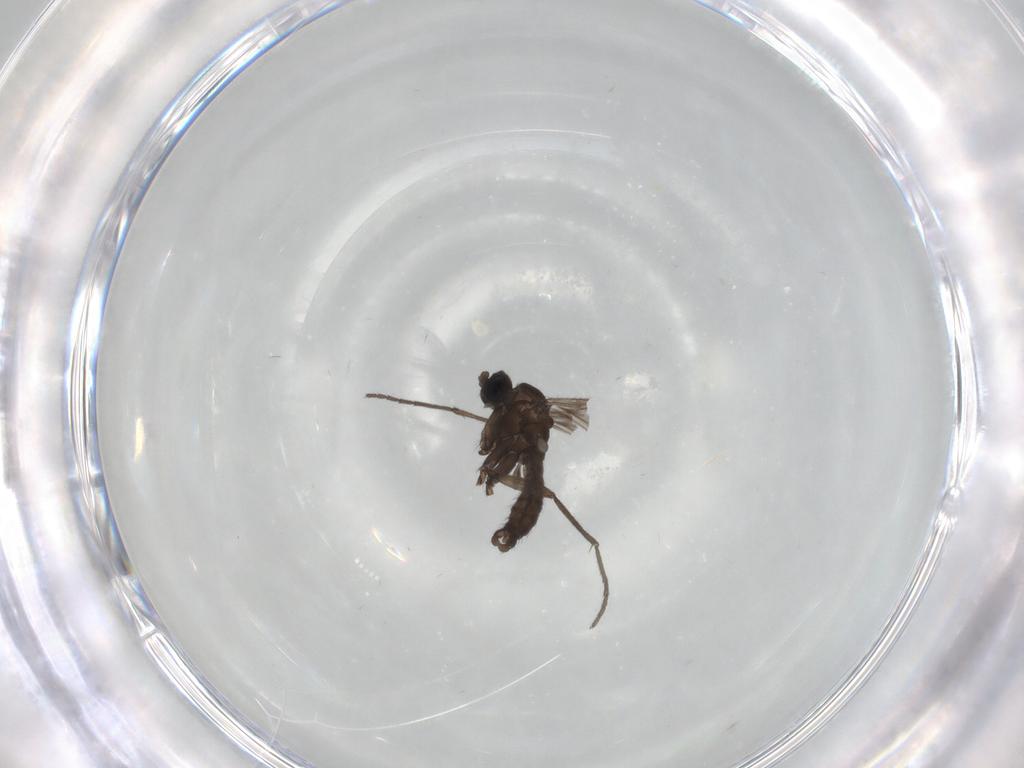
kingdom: Animalia
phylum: Arthropoda
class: Insecta
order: Diptera
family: Sciaridae
